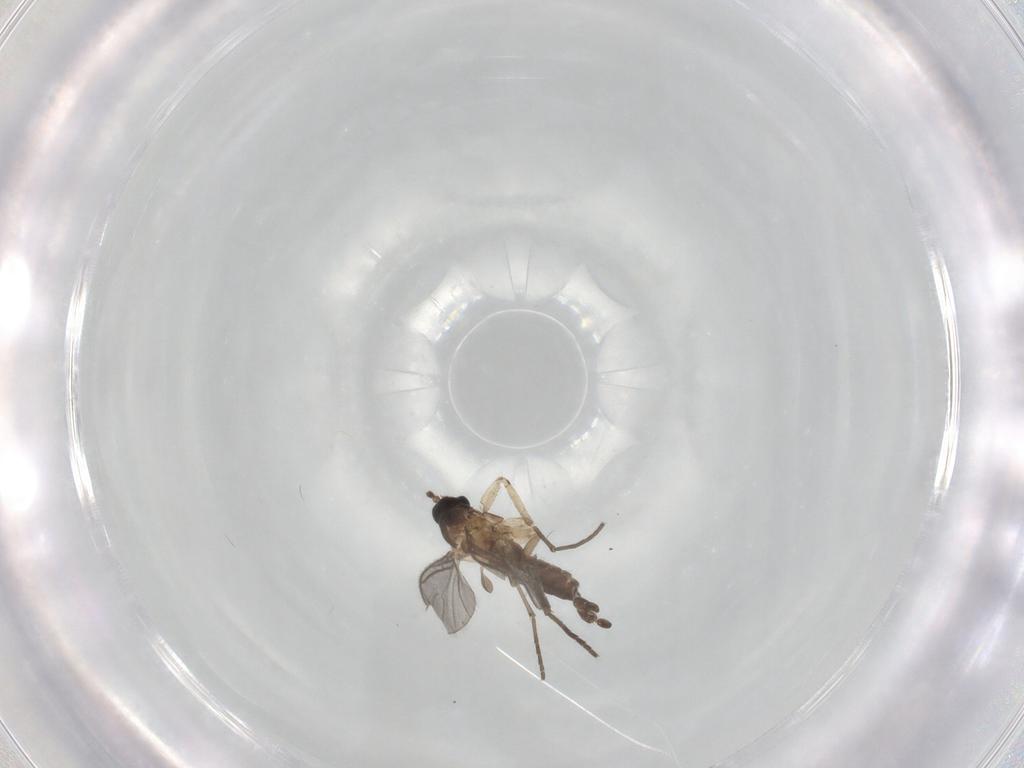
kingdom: Animalia
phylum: Arthropoda
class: Insecta
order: Diptera
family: Sciaridae
